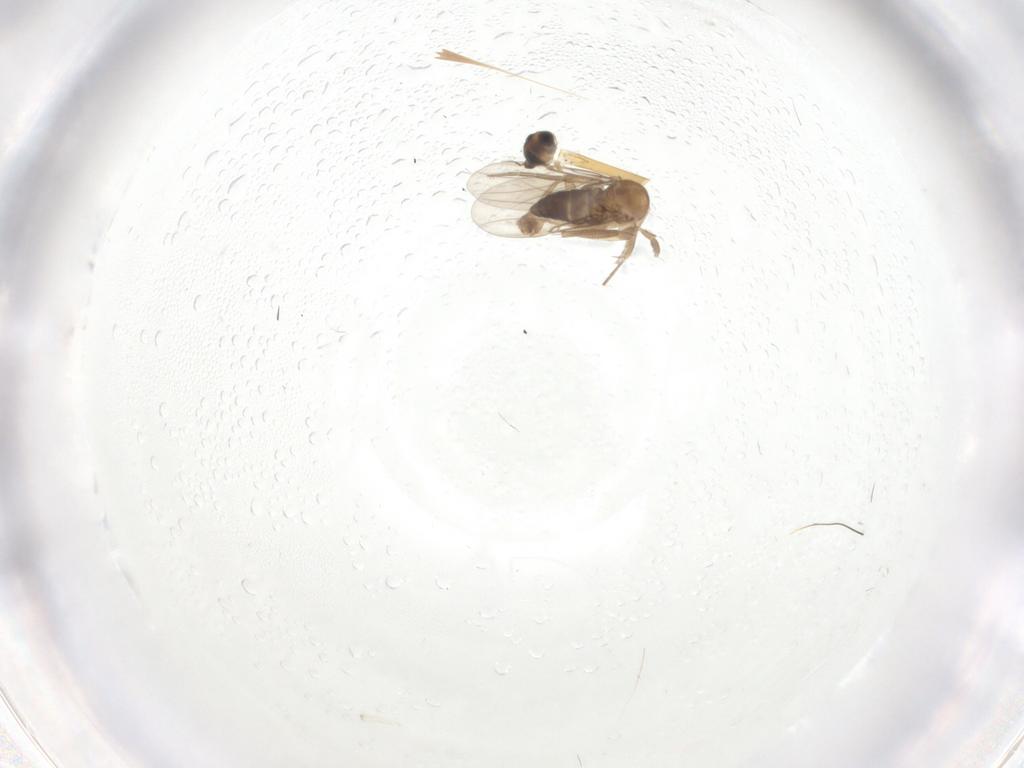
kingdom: Animalia
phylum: Arthropoda
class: Insecta
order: Diptera
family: Phoridae
